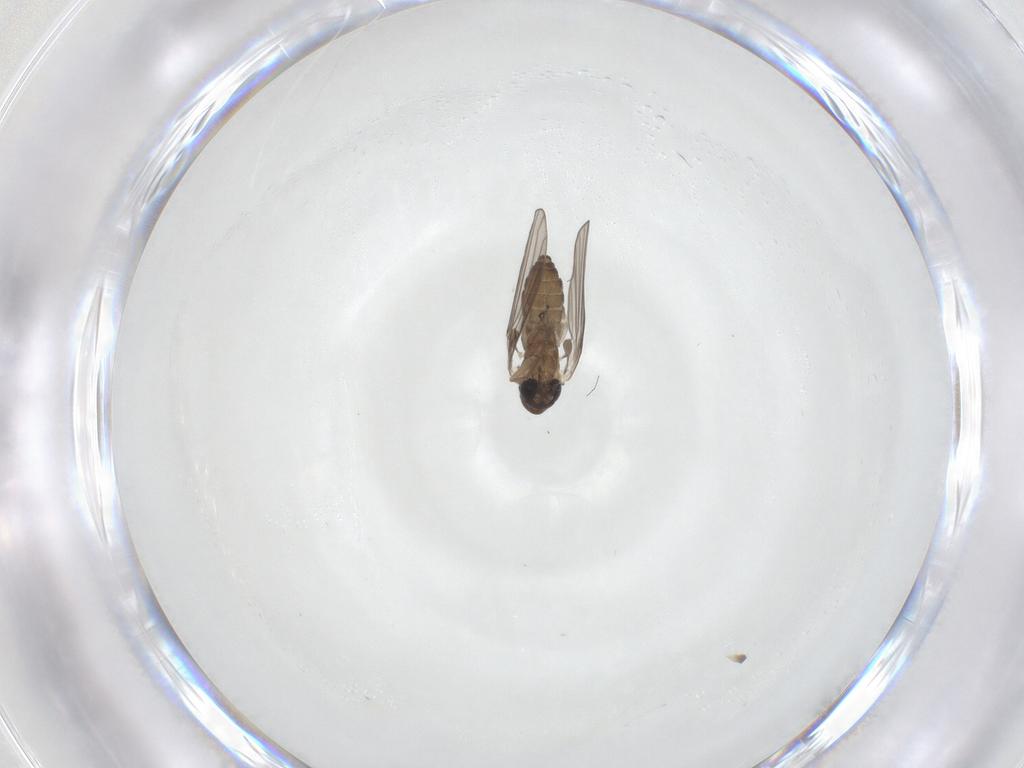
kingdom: Animalia
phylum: Arthropoda
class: Insecta
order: Diptera
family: Psychodidae
